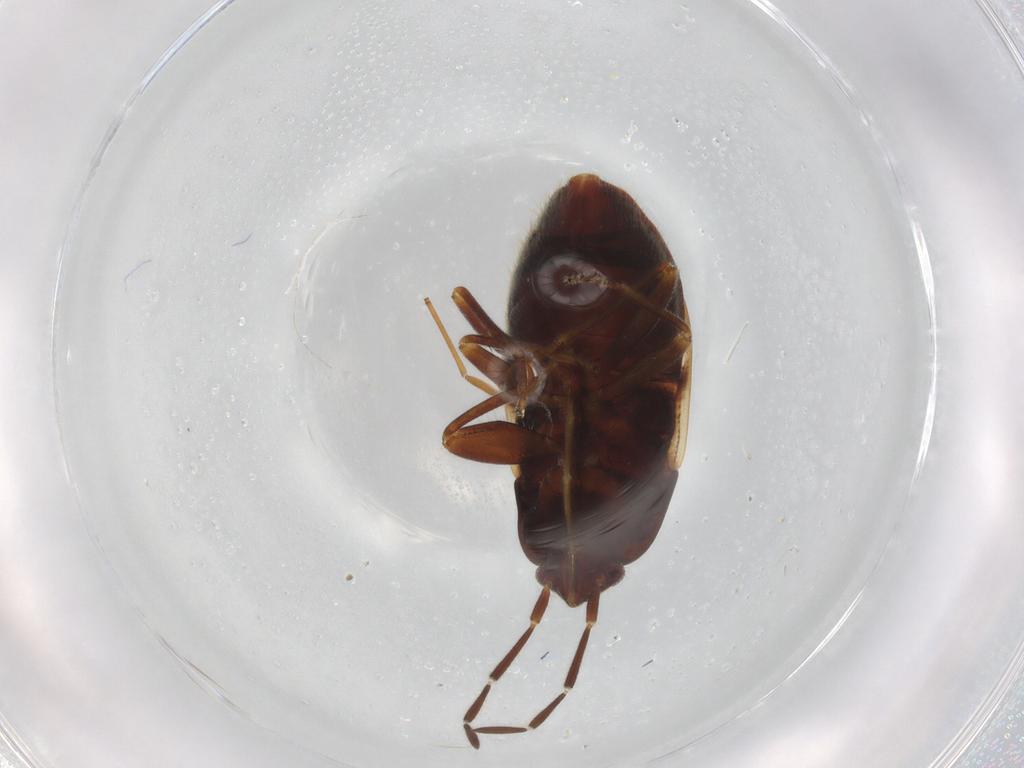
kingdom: Animalia
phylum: Arthropoda
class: Insecta
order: Hemiptera
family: Rhyparochromidae
